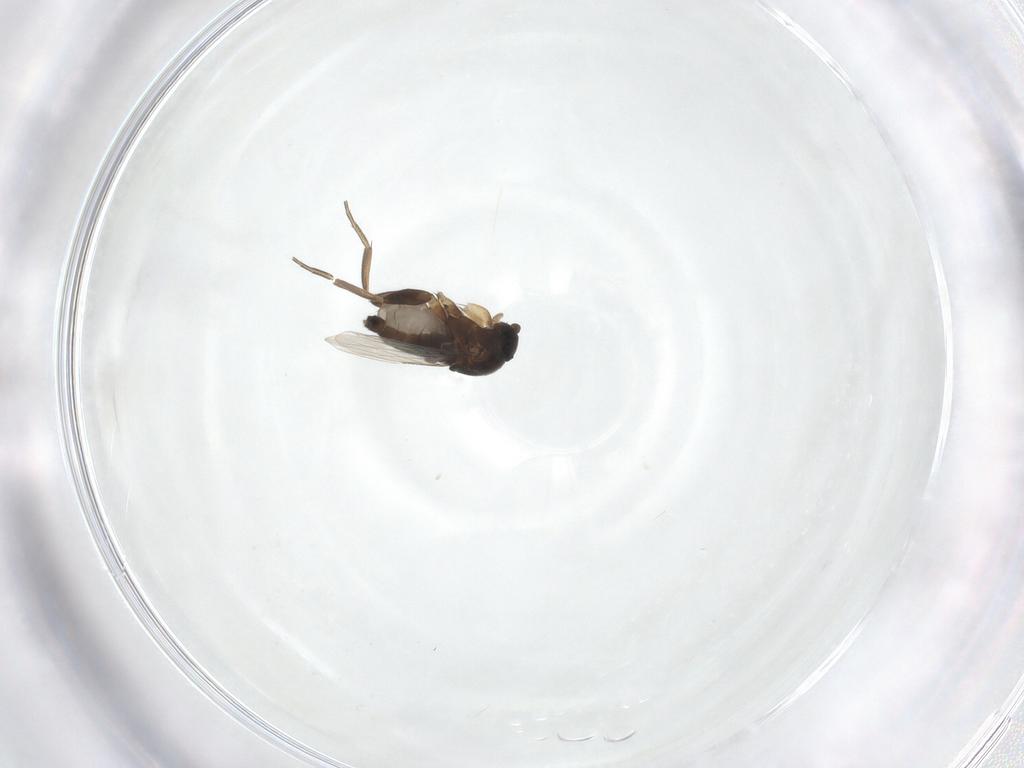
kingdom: Animalia
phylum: Arthropoda
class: Insecta
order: Diptera
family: Phoridae
